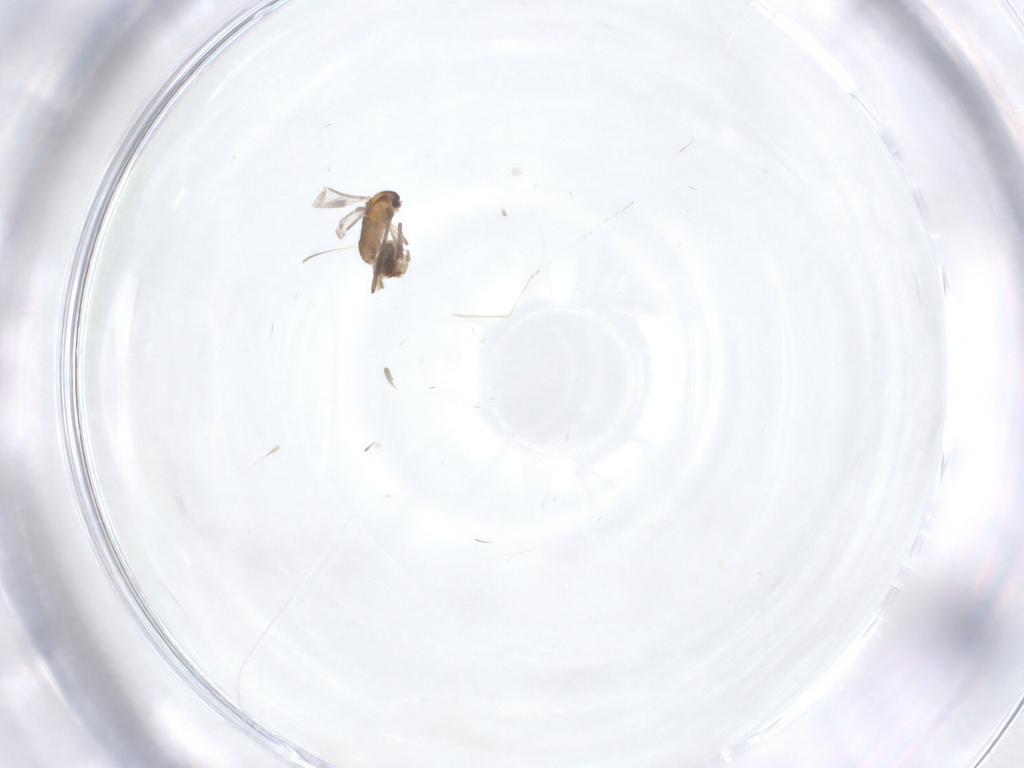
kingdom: Animalia
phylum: Arthropoda
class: Insecta
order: Diptera
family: Chironomidae
